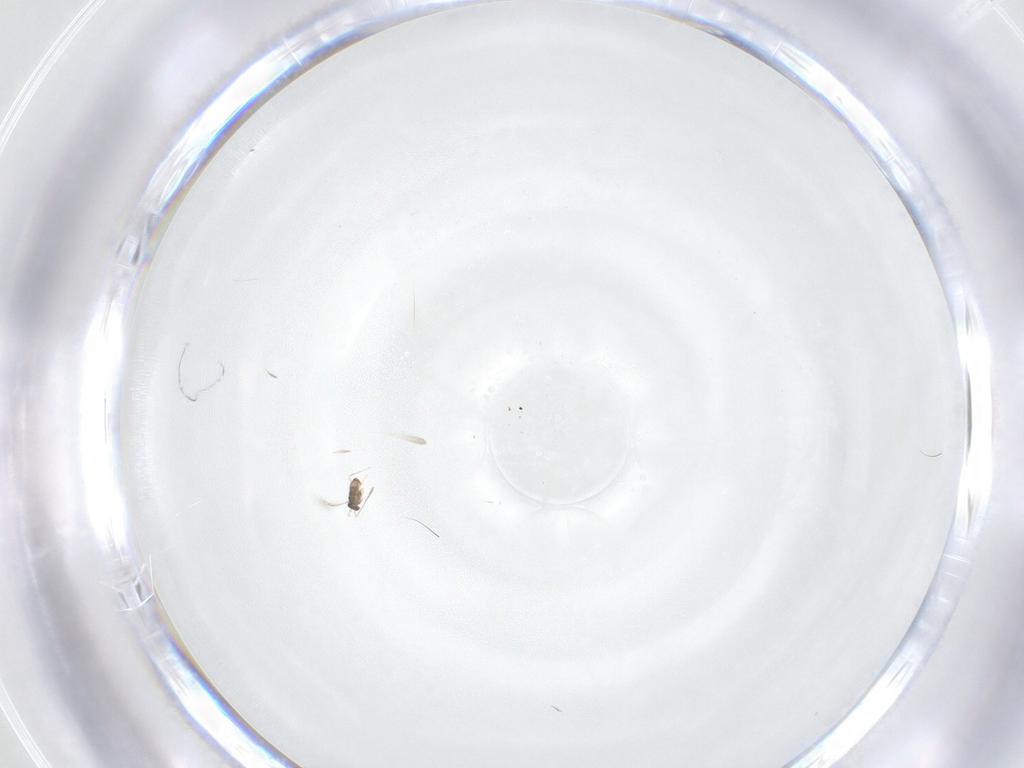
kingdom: Animalia
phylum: Arthropoda
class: Insecta
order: Hymenoptera
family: Mymaridae
